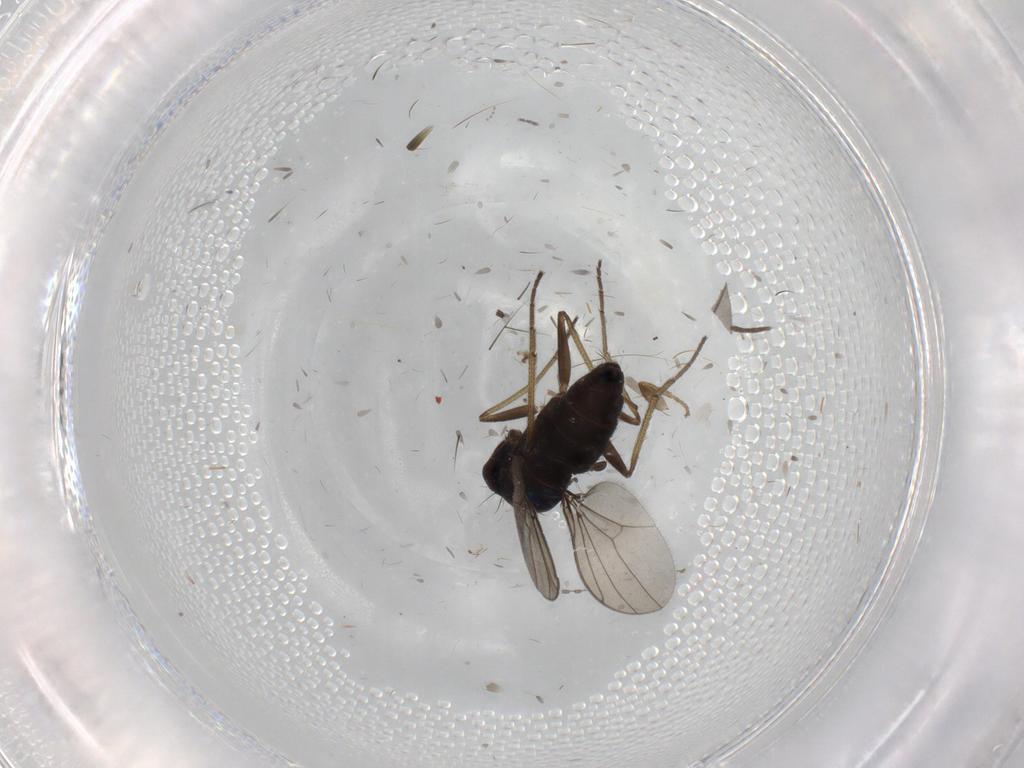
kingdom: Animalia
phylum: Arthropoda
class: Insecta
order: Diptera
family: Dolichopodidae
